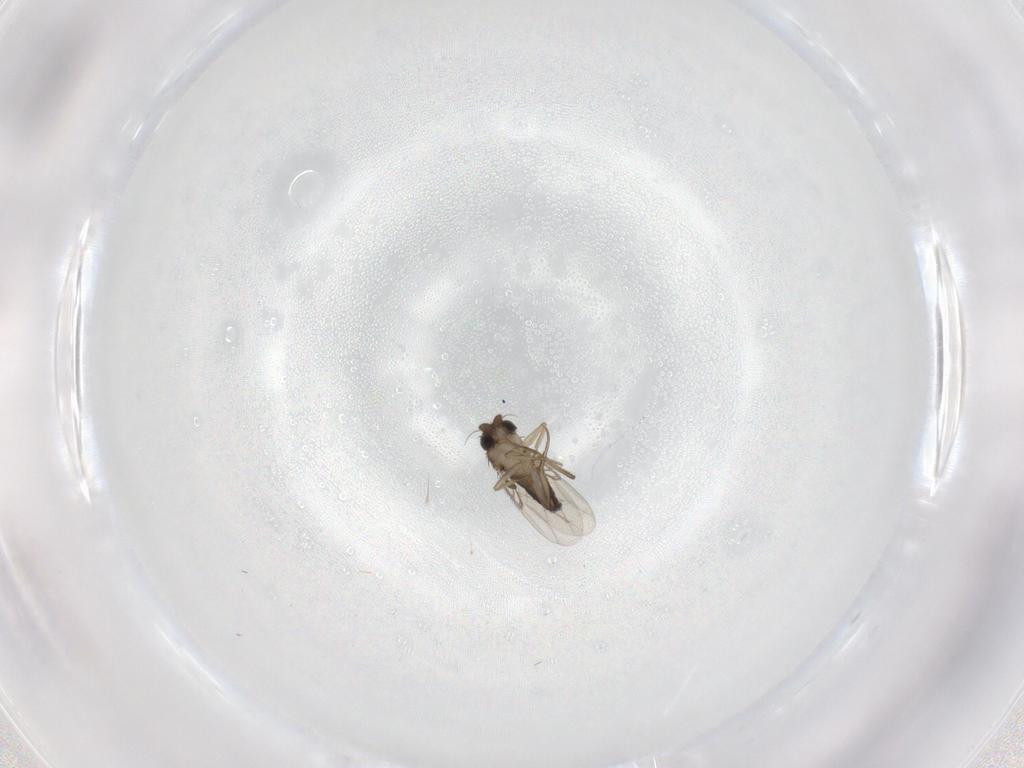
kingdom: Animalia
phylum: Arthropoda
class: Insecta
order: Diptera
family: Phoridae
